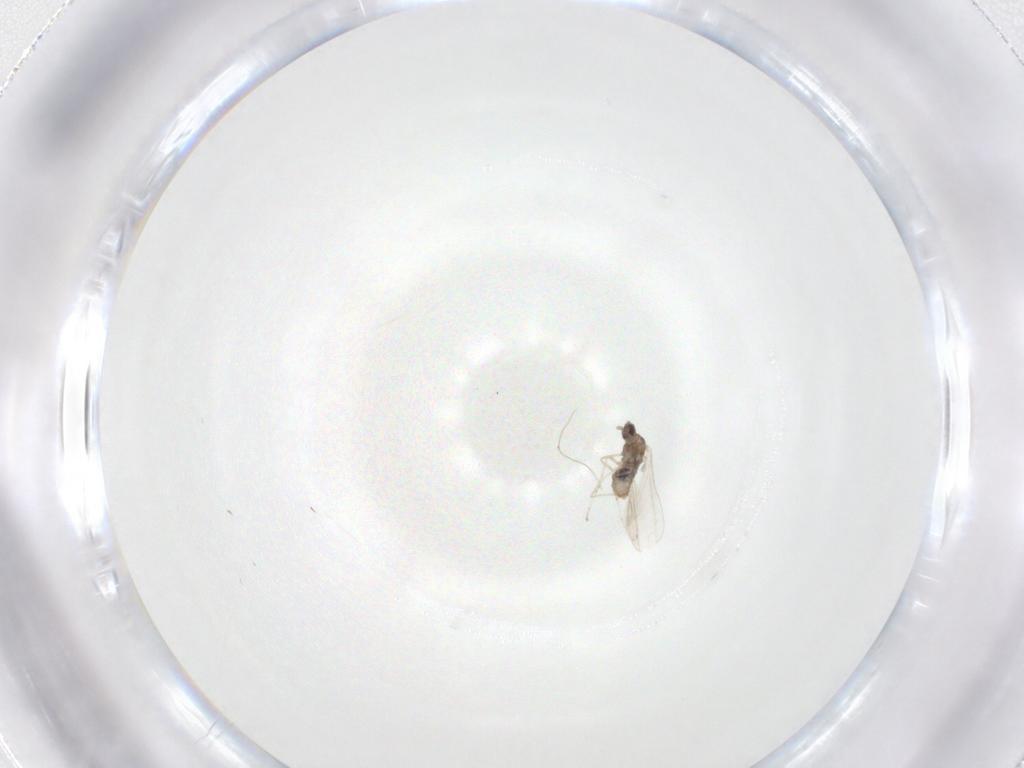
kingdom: Animalia
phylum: Arthropoda
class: Insecta
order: Diptera
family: Cecidomyiidae
